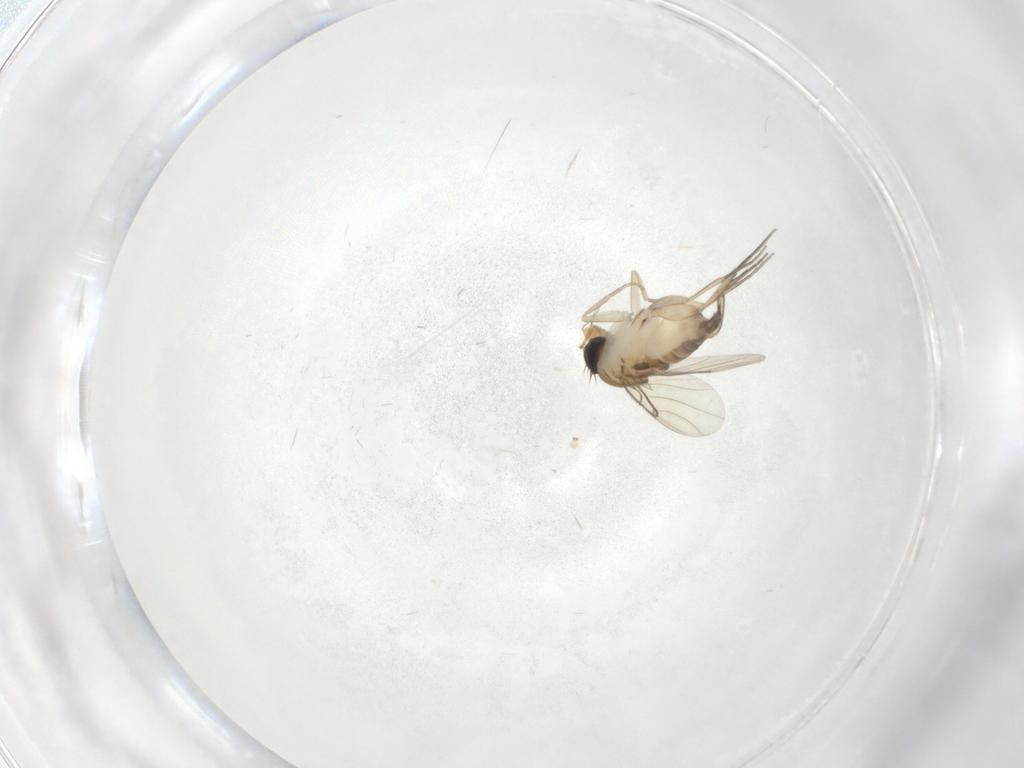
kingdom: Animalia
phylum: Arthropoda
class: Insecta
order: Diptera
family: Phoridae
